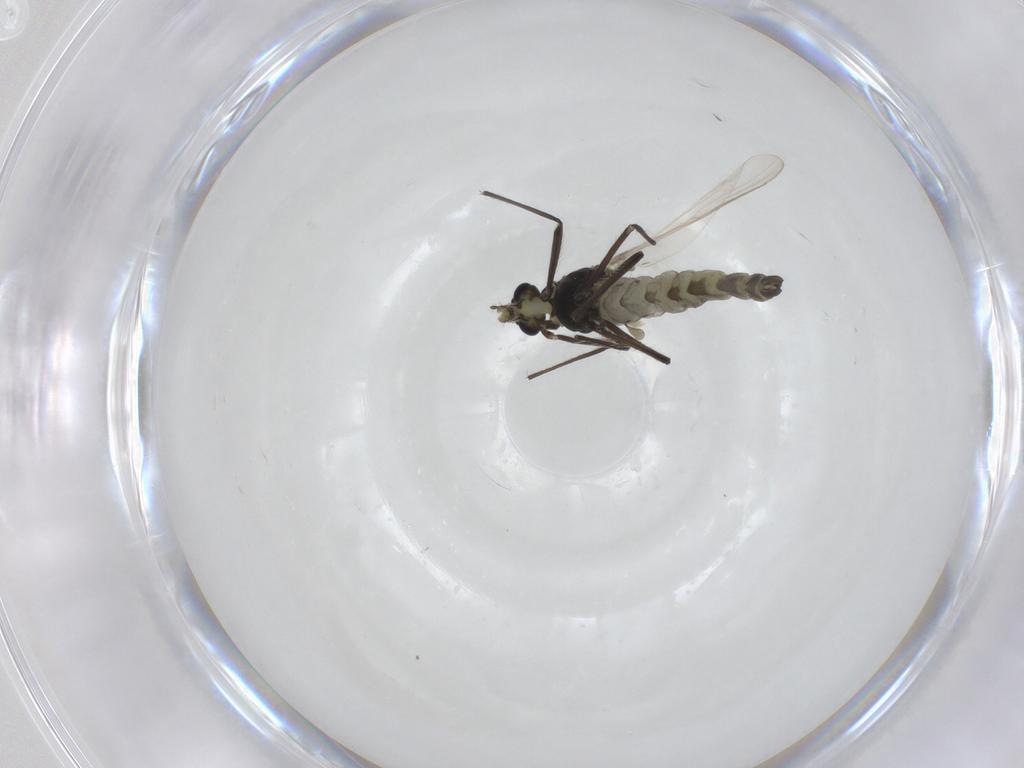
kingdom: Animalia
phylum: Arthropoda
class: Insecta
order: Diptera
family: Chironomidae
